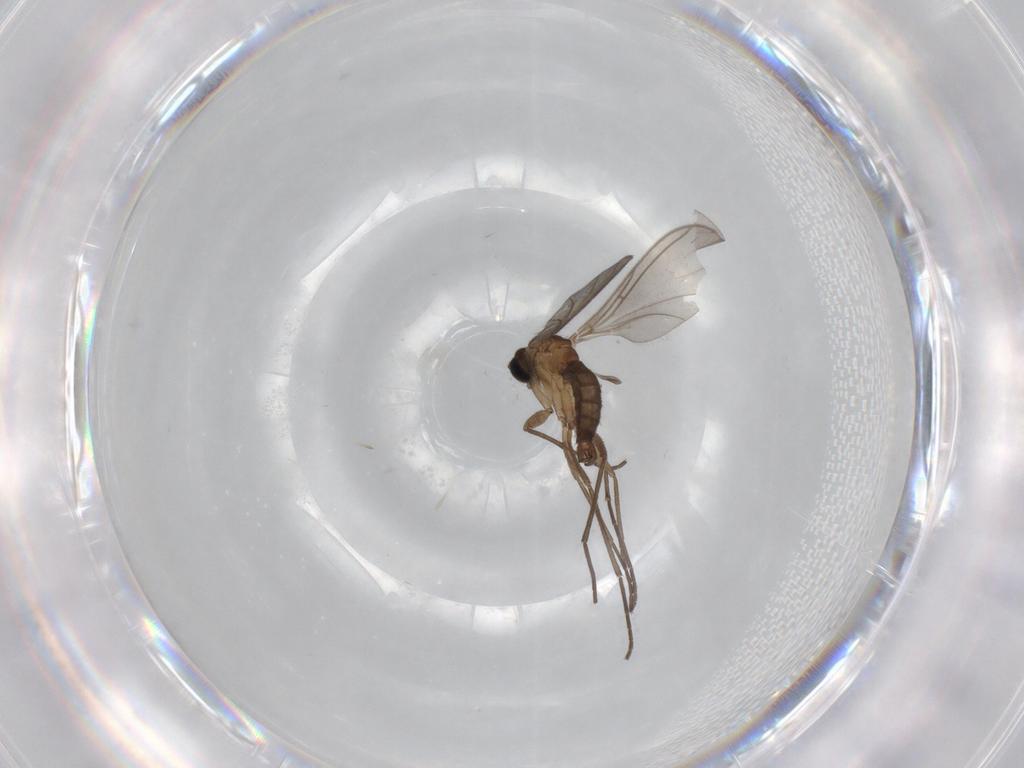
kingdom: Animalia
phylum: Arthropoda
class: Insecta
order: Diptera
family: Sciaridae
